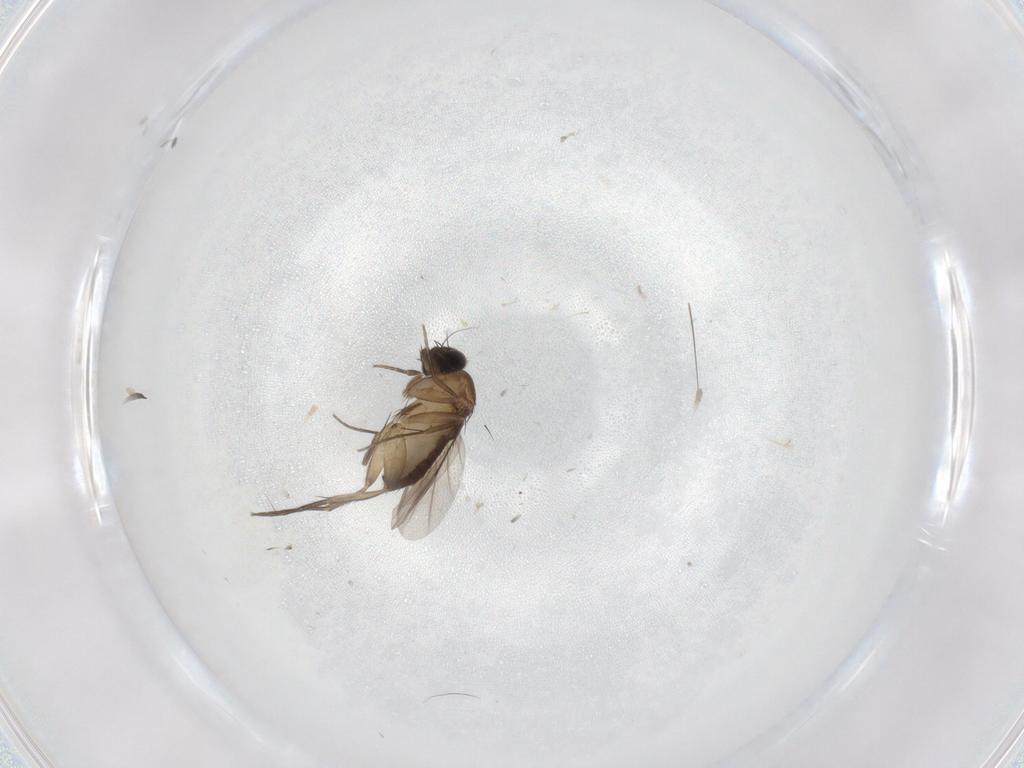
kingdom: Animalia
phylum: Arthropoda
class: Insecta
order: Diptera
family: Phoridae
